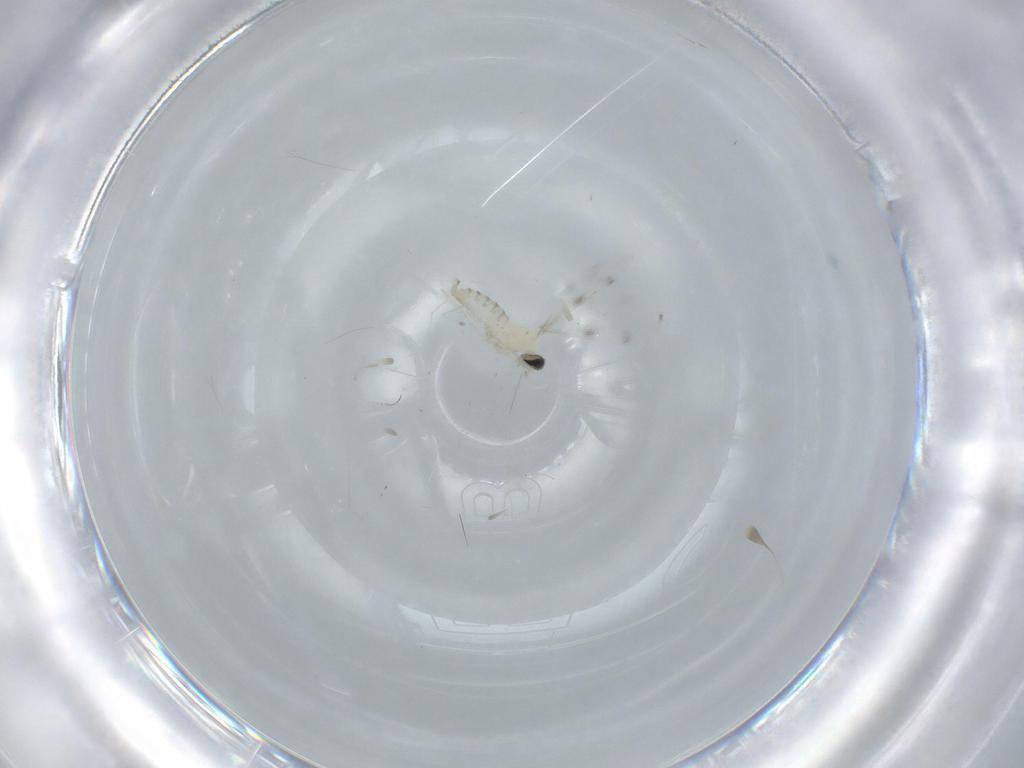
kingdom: Animalia
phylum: Arthropoda
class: Insecta
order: Diptera
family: Cecidomyiidae
